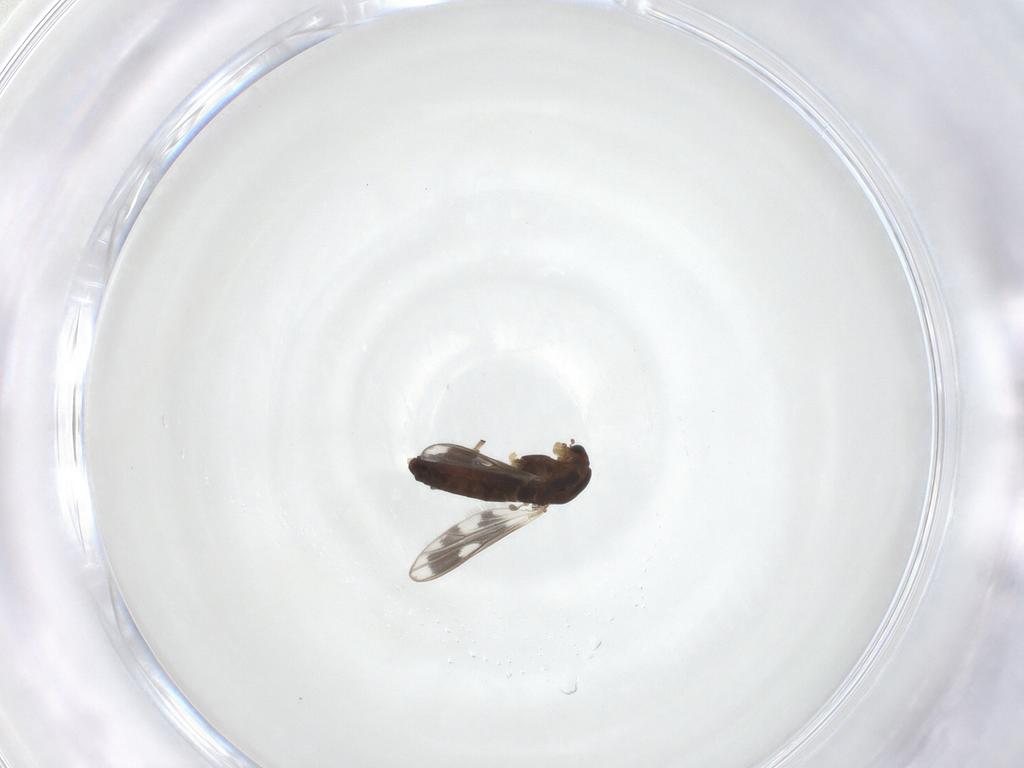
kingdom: Animalia
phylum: Arthropoda
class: Insecta
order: Diptera
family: Chironomidae
